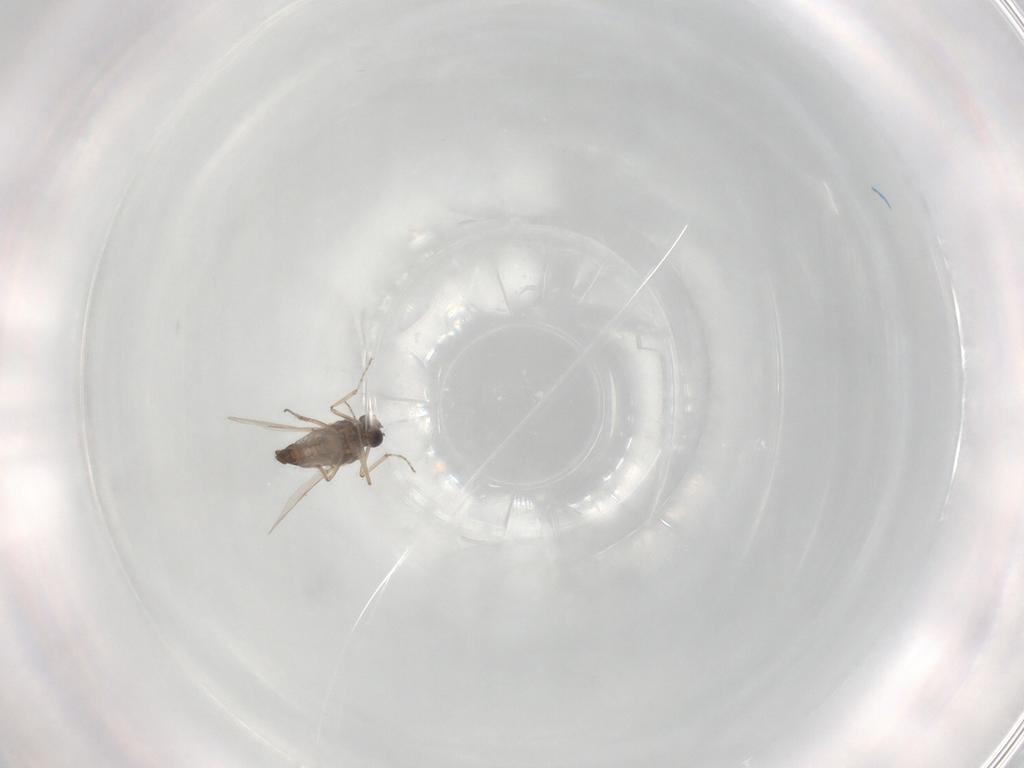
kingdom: Animalia
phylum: Arthropoda
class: Insecta
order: Diptera
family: Ceratopogonidae
